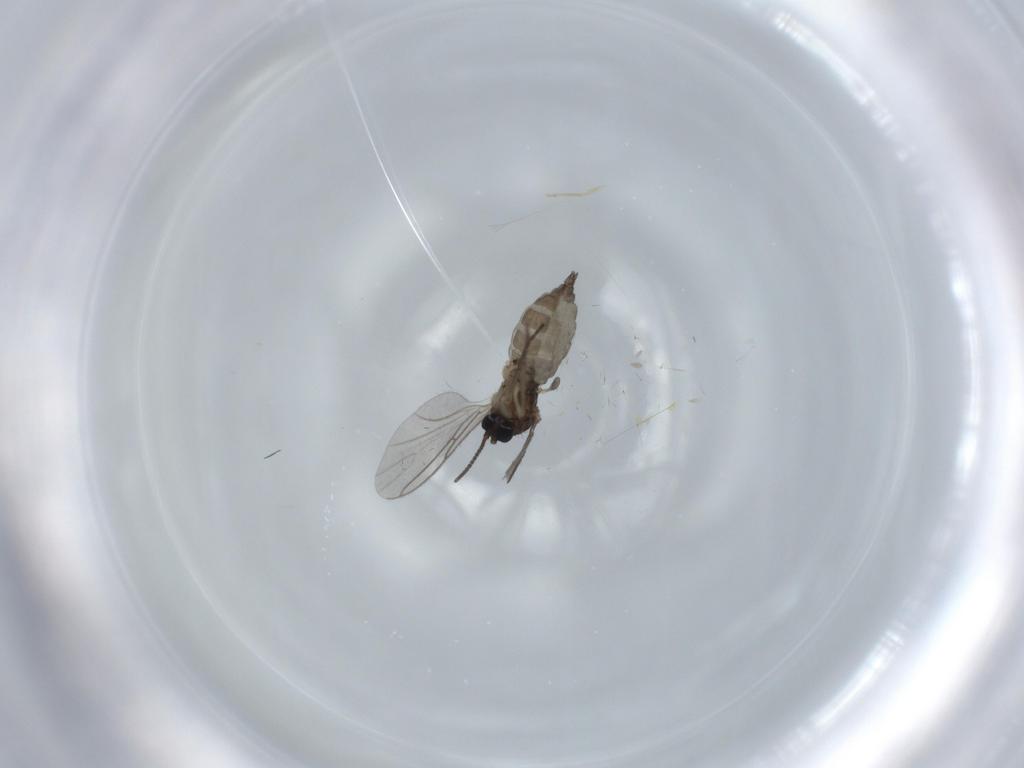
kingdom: Animalia
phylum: Arthropoda
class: Insecta
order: Diptera
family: Sciaridae
